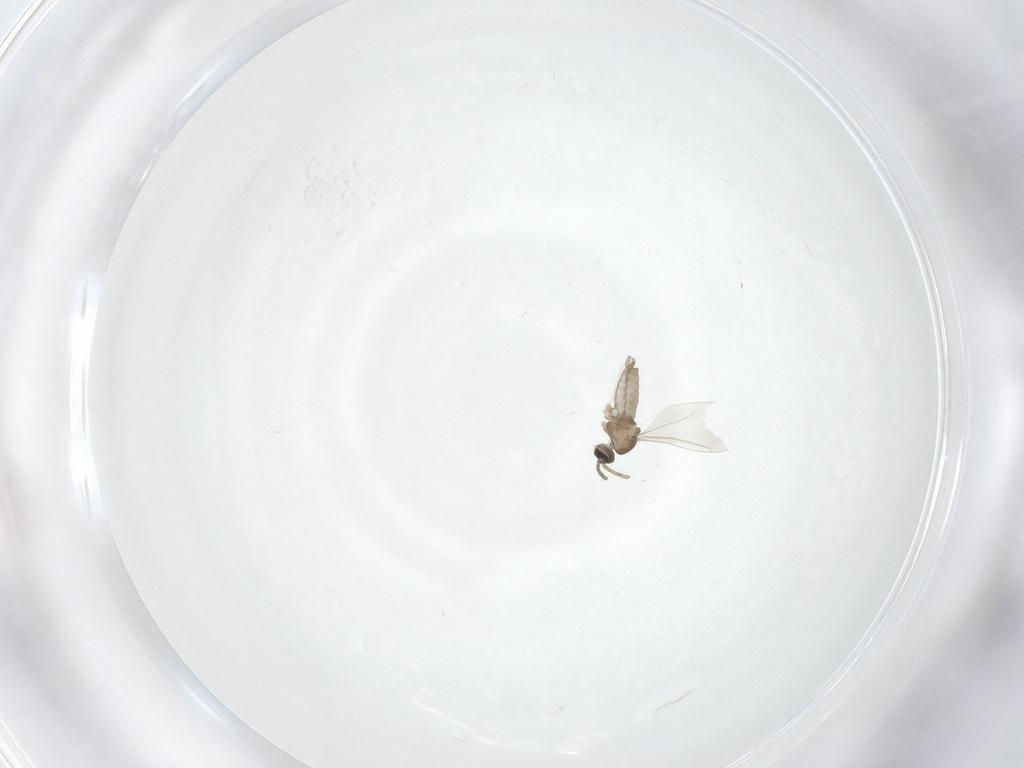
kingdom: Animalia
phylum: Arthropoda
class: Insecta
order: Diptera
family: Cecidomyiidae
